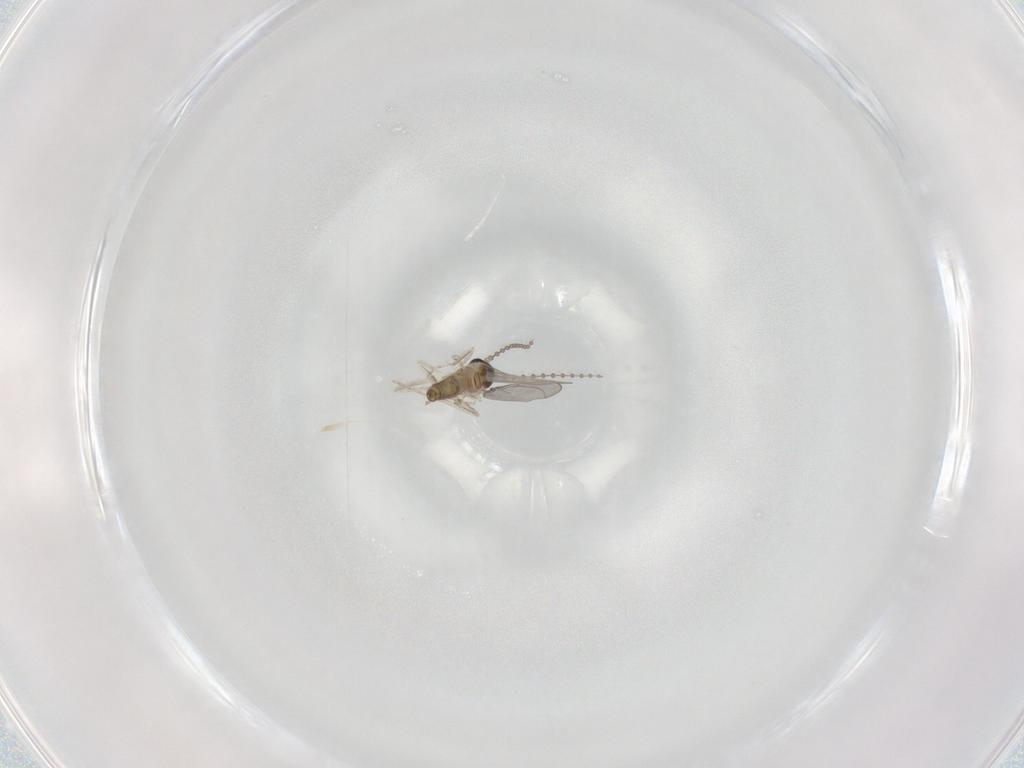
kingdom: Animalia
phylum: Arthropoda
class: Insecta
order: Diptera
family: Cecidomyiidae
